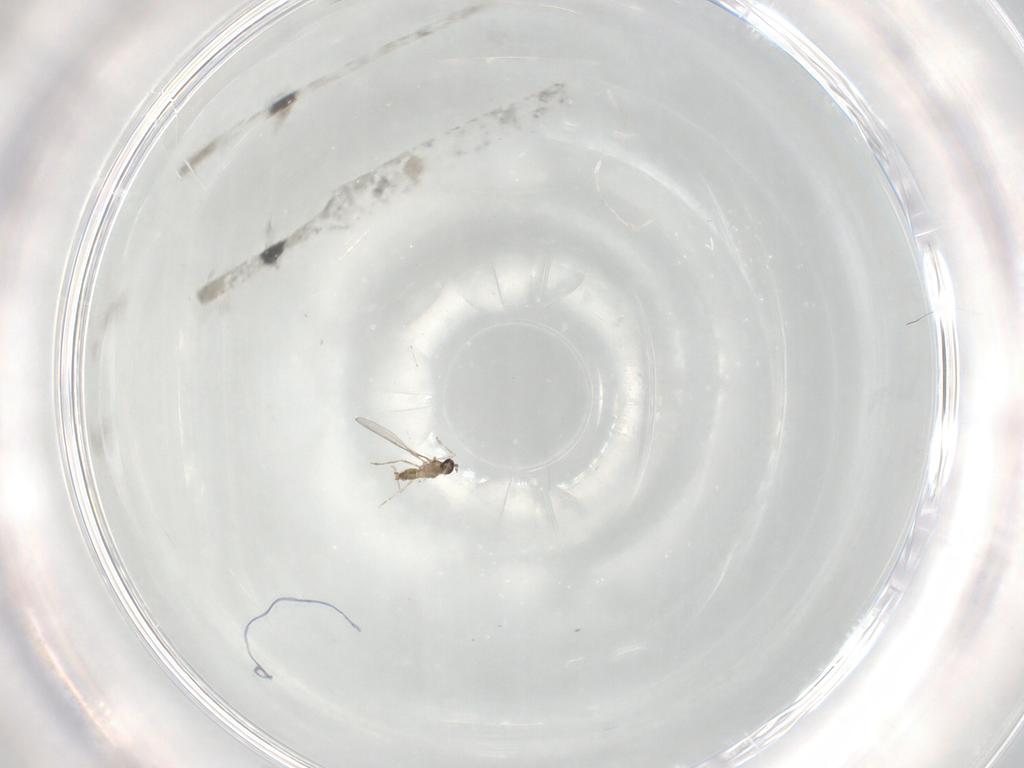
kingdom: Animalia
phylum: Arthropoda
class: Insecta
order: Diptera
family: Cecidomyiidae
